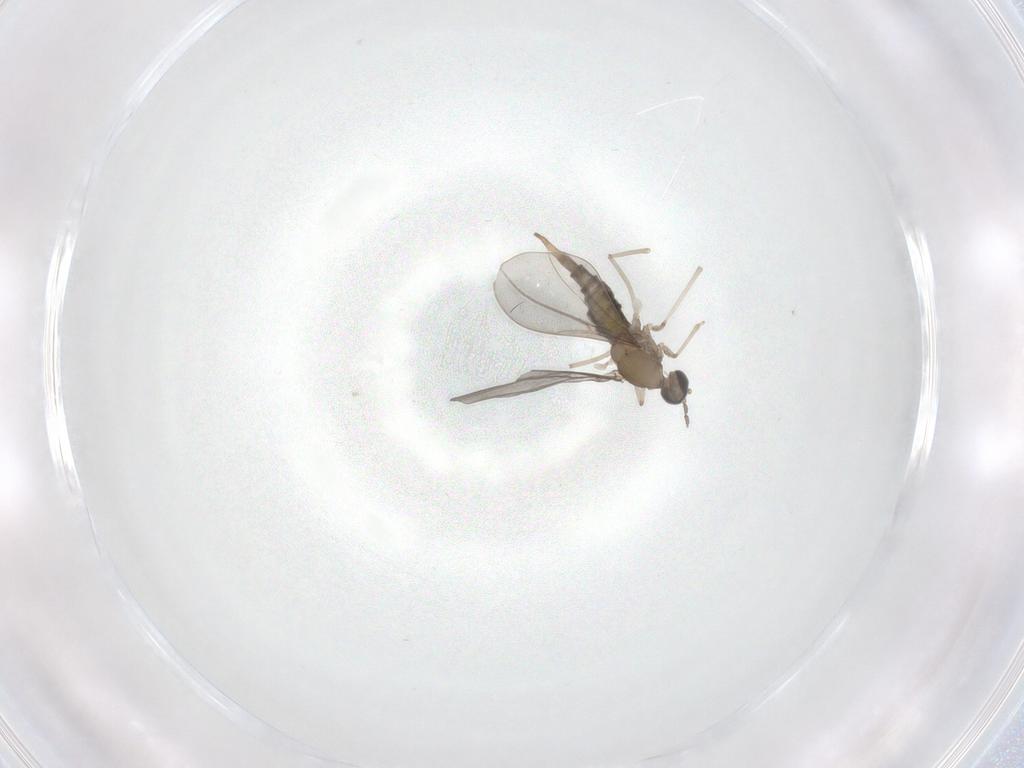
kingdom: Animalia
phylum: Arthropoda
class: Insecta
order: Diptera
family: Cecidomyiidae
